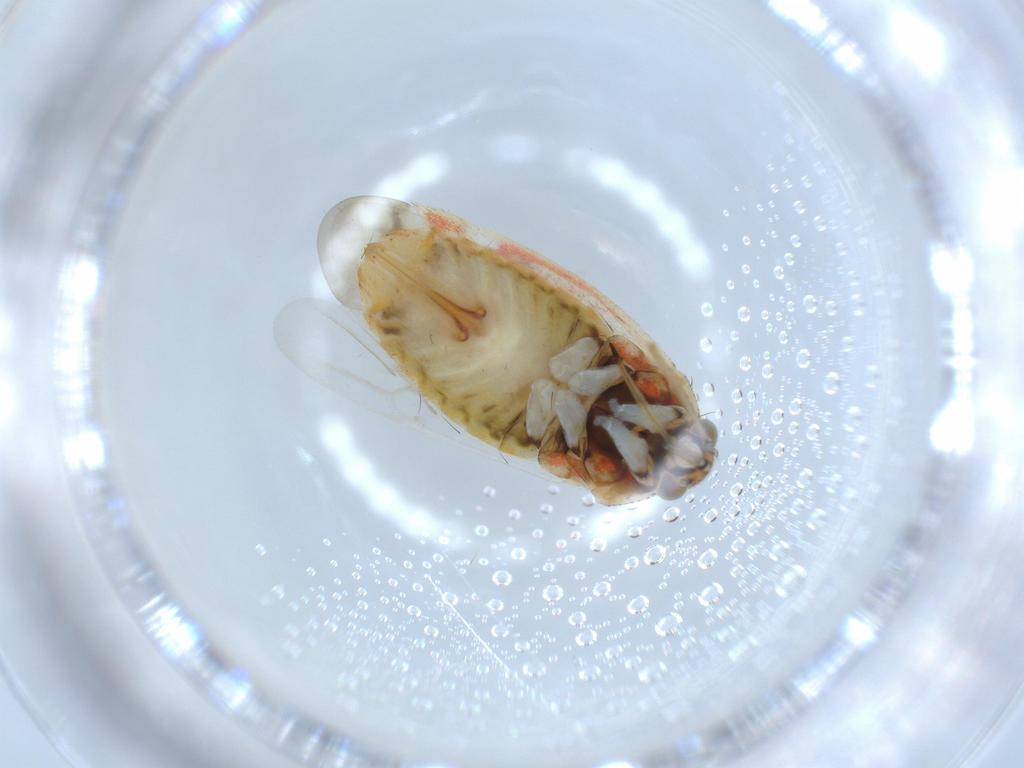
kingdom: Animalia
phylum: Arthropoda
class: Insecta
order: Hemiptera
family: Miridae
